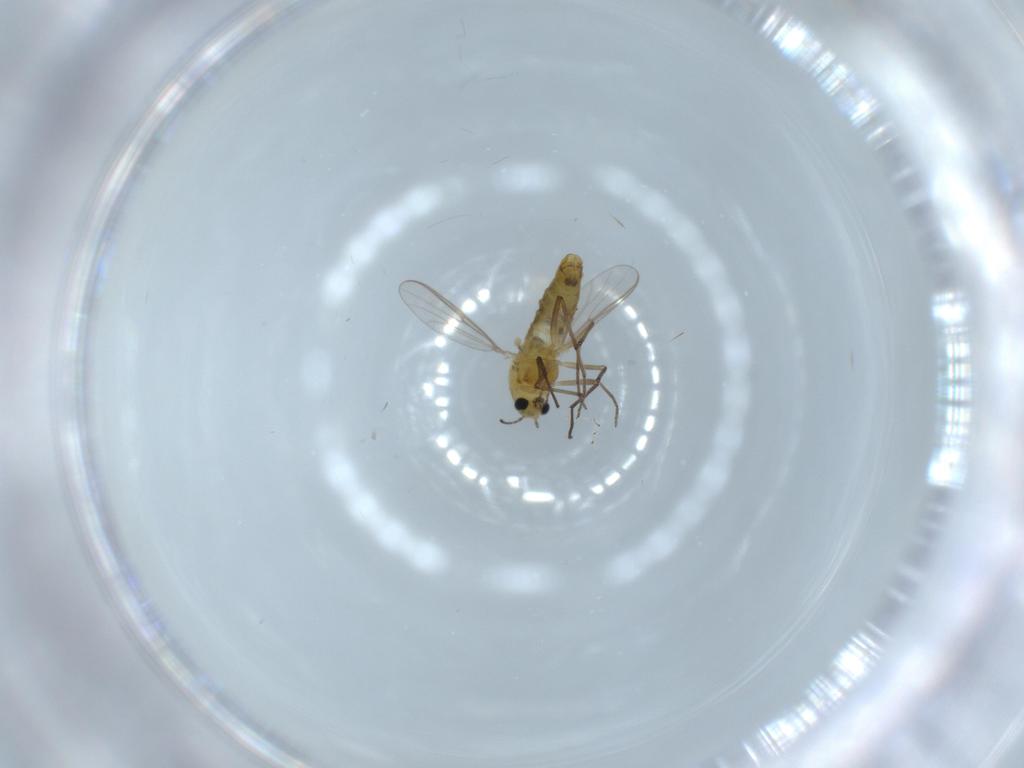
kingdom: Animalia
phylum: Arthropoda
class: Insecta
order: Diptera
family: Chironomidae
